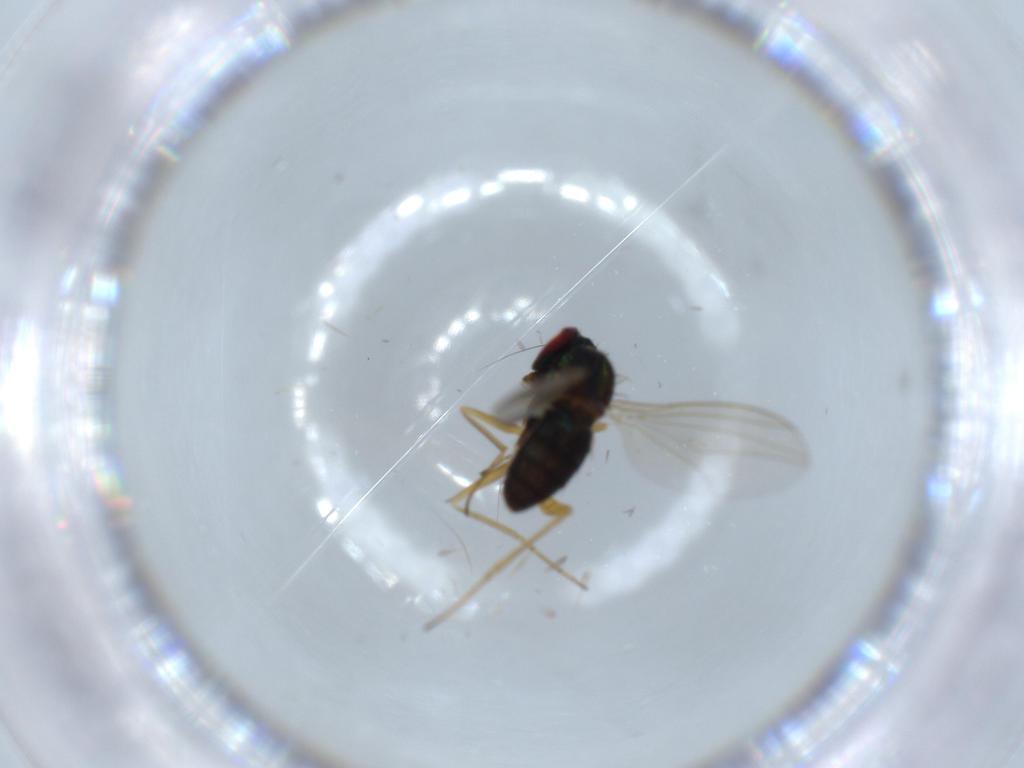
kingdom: Animalia
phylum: Arthropoda
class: Insecta
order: Diptera
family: Dolichopodidae
